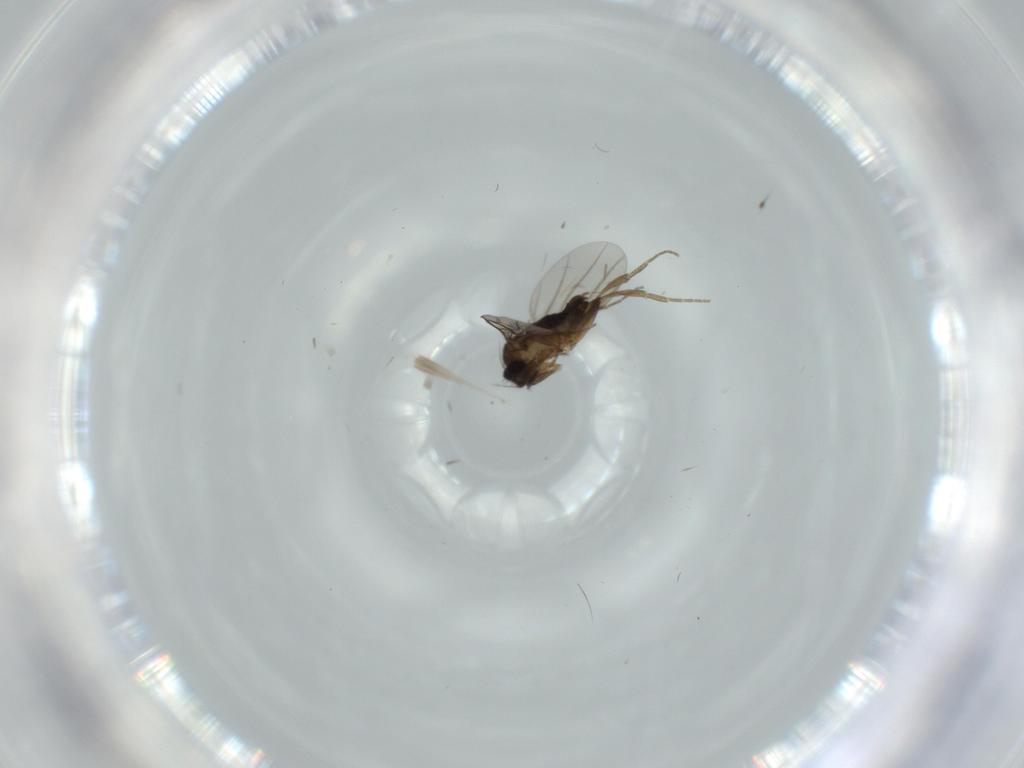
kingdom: Animalia
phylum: Arthropoda
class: Insecta
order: Diptera
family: Phoridae
